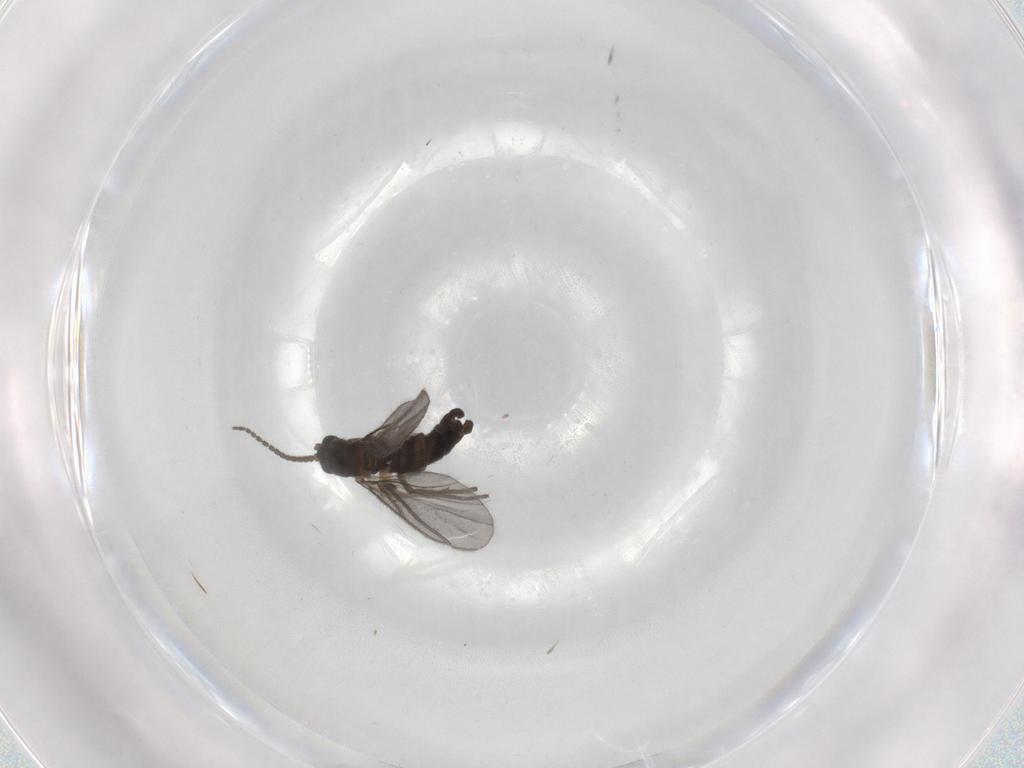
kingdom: Animalia
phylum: Arthropoda
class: Insecta
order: Diptera
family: Sciaridae
